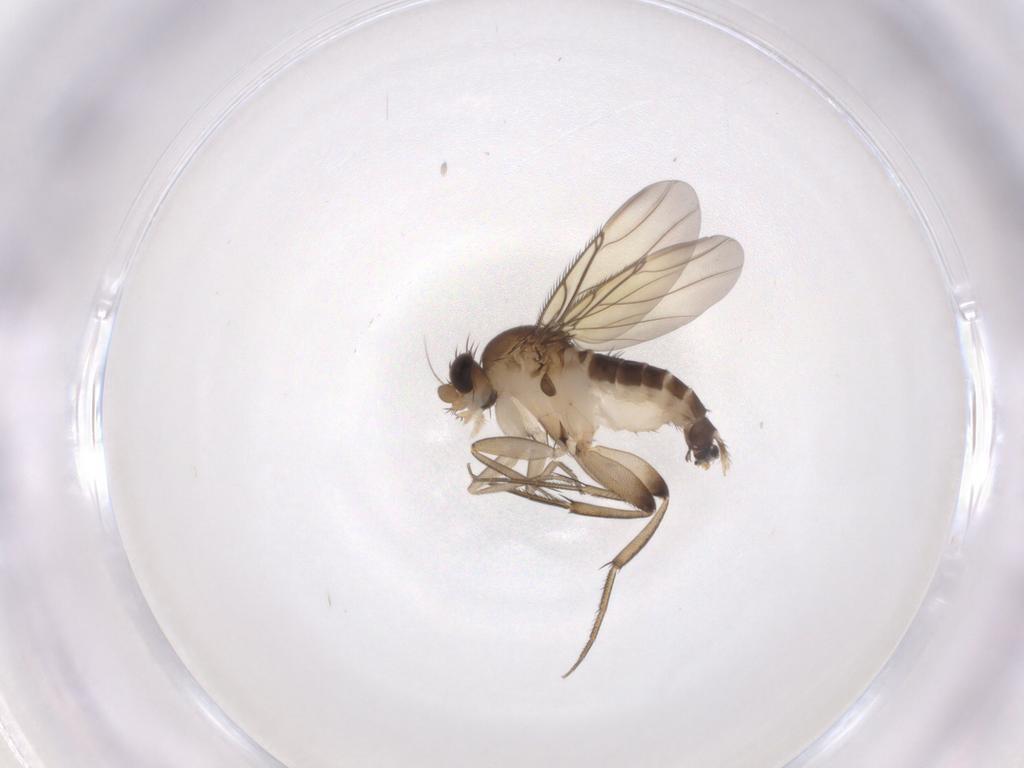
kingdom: Animalia
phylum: Arthropoda
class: Insecta
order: Diptera
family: Phoridae
